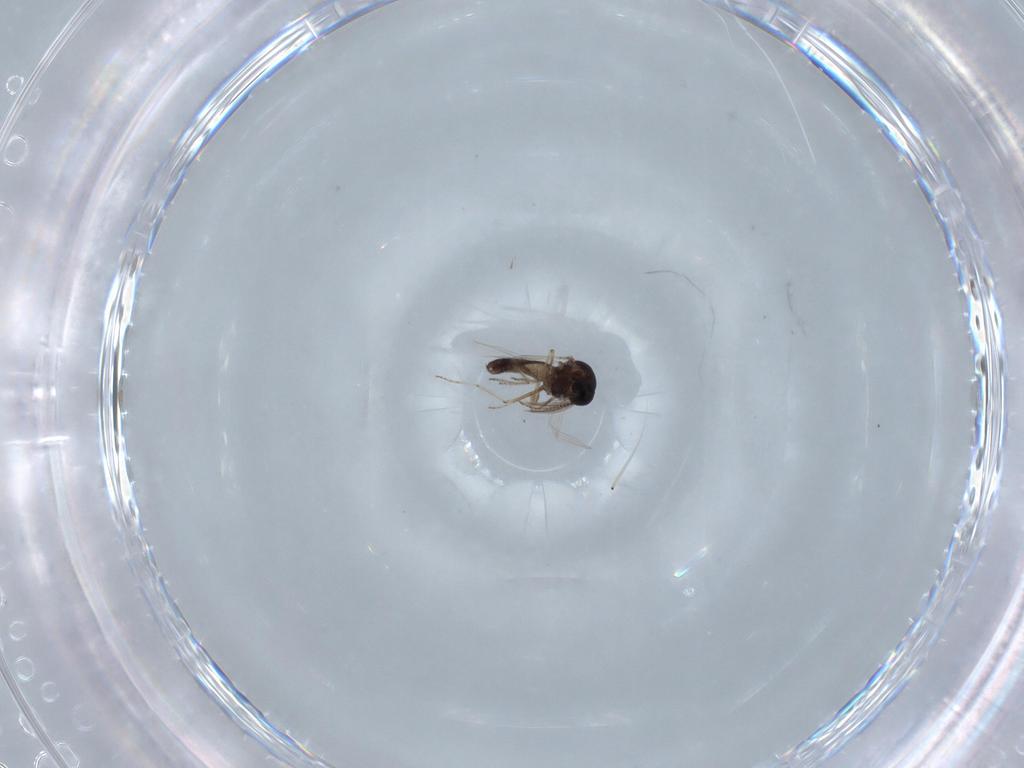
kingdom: Animalia
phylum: Arthropoda
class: Insecta
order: Diptera
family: Ceratopogonidae
